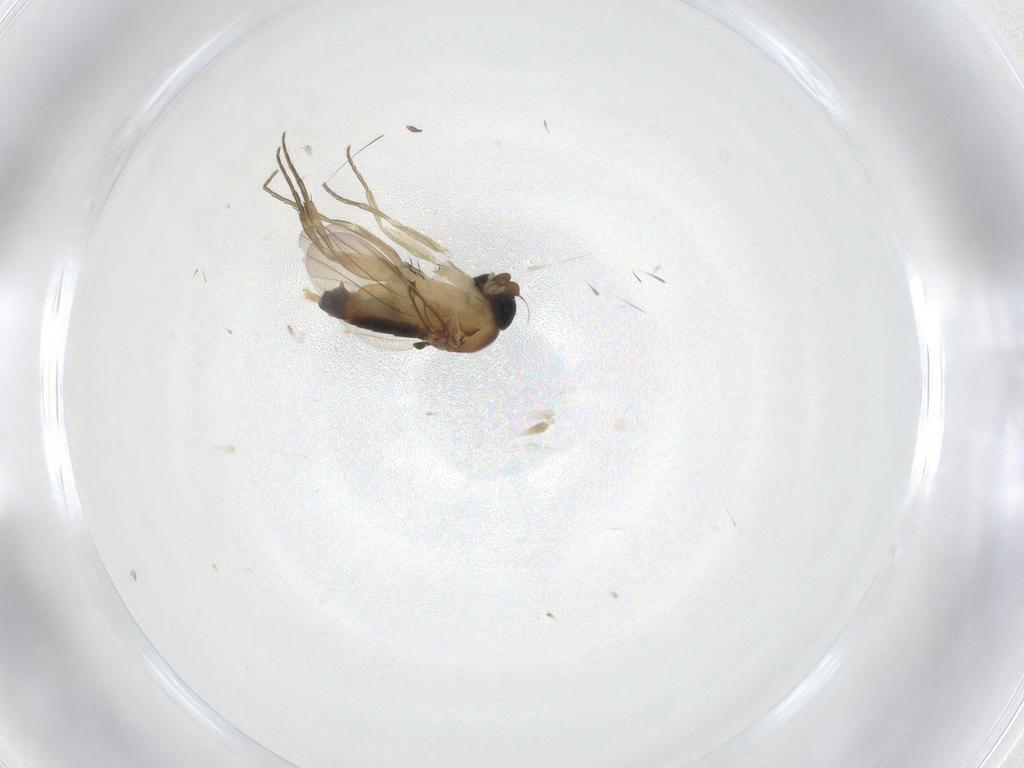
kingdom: Animalia
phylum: Arthropoda
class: Insecta
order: Diptera
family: Phoridae
